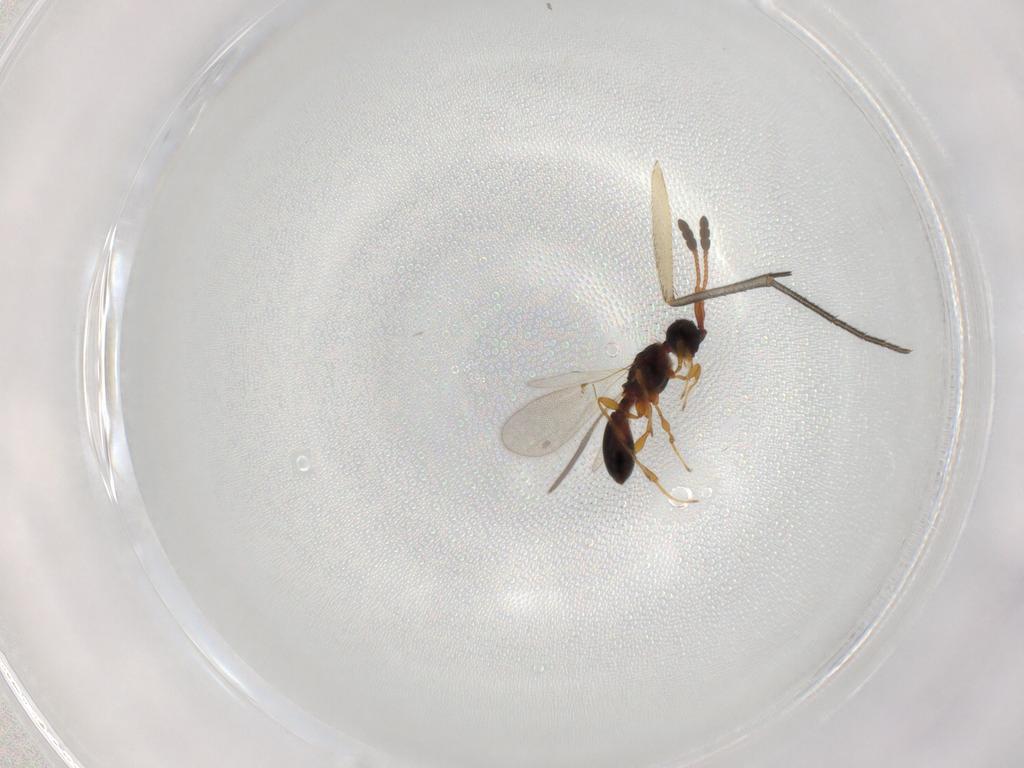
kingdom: Animalia
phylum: Arthropoda
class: Insecta
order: Hymenoptera
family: Diapriidae
